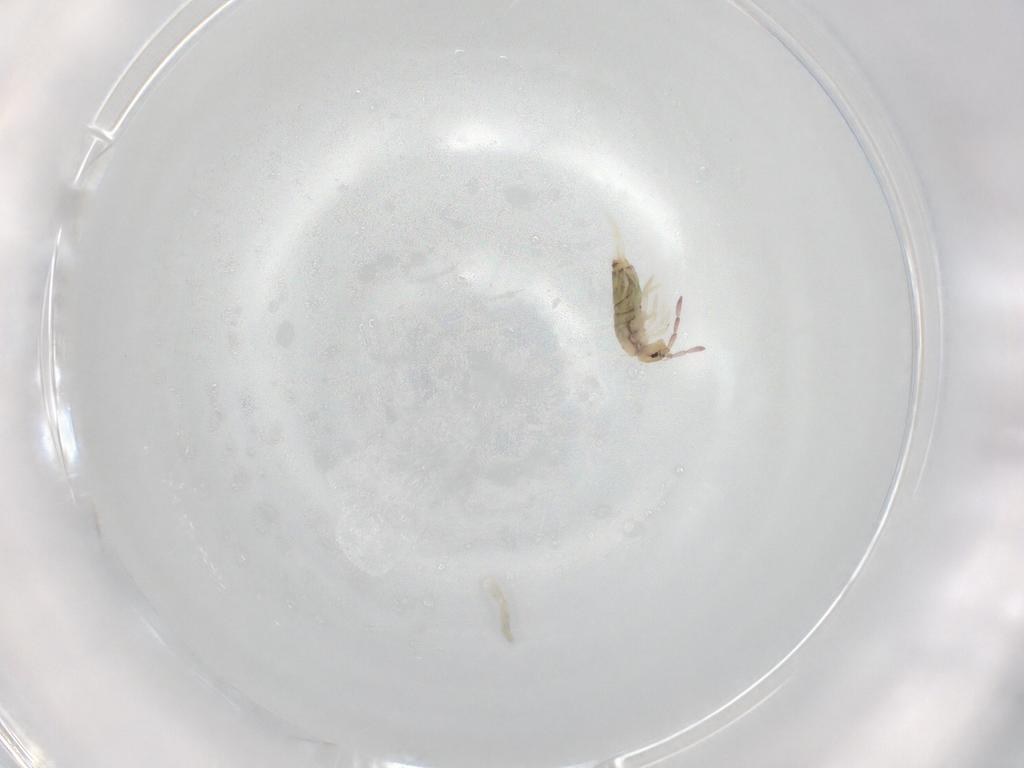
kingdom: Animalia
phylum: Arthropoda
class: Collembola
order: Entomobryomorpha
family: Entomobryidae
